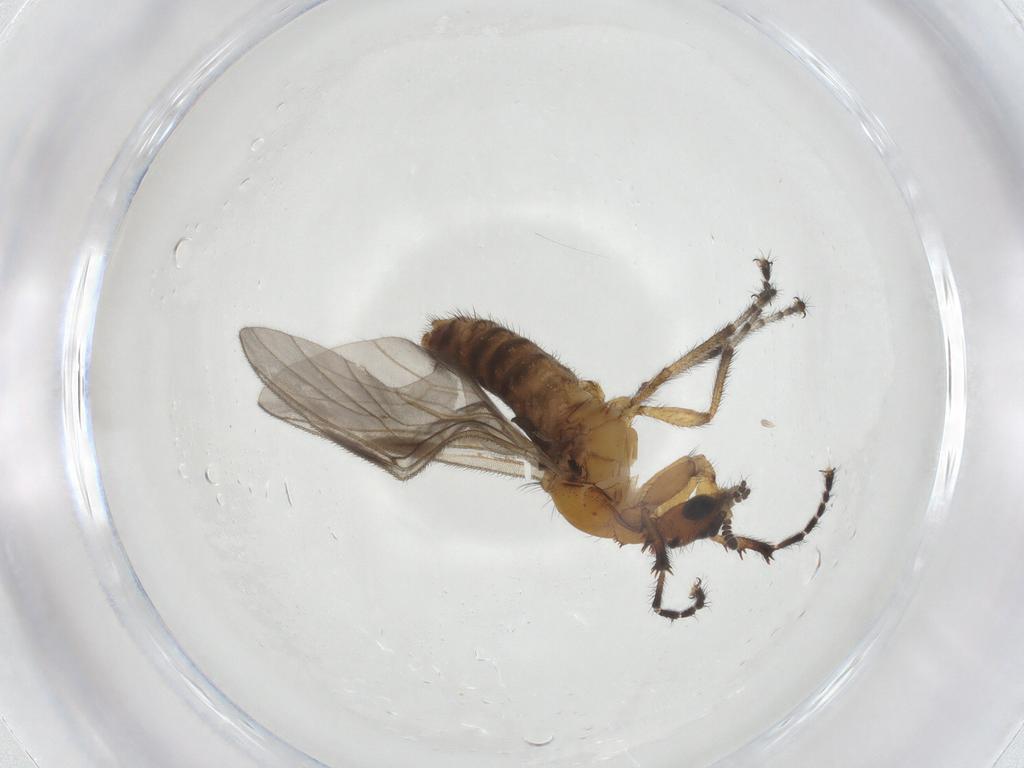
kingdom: Animalia
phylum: Arthropoda
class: Insecta
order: Diptera
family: Bibionidae
